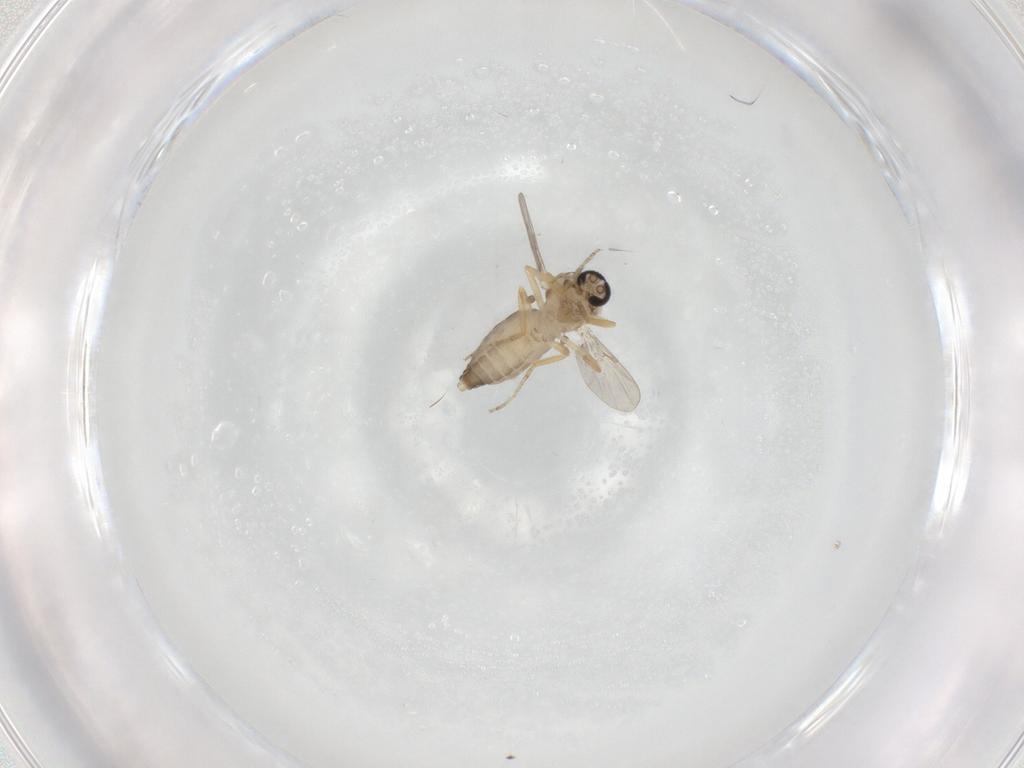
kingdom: Animalia
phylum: Arthropoda
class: Insecta
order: Diptera
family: Ceratopogonidae
